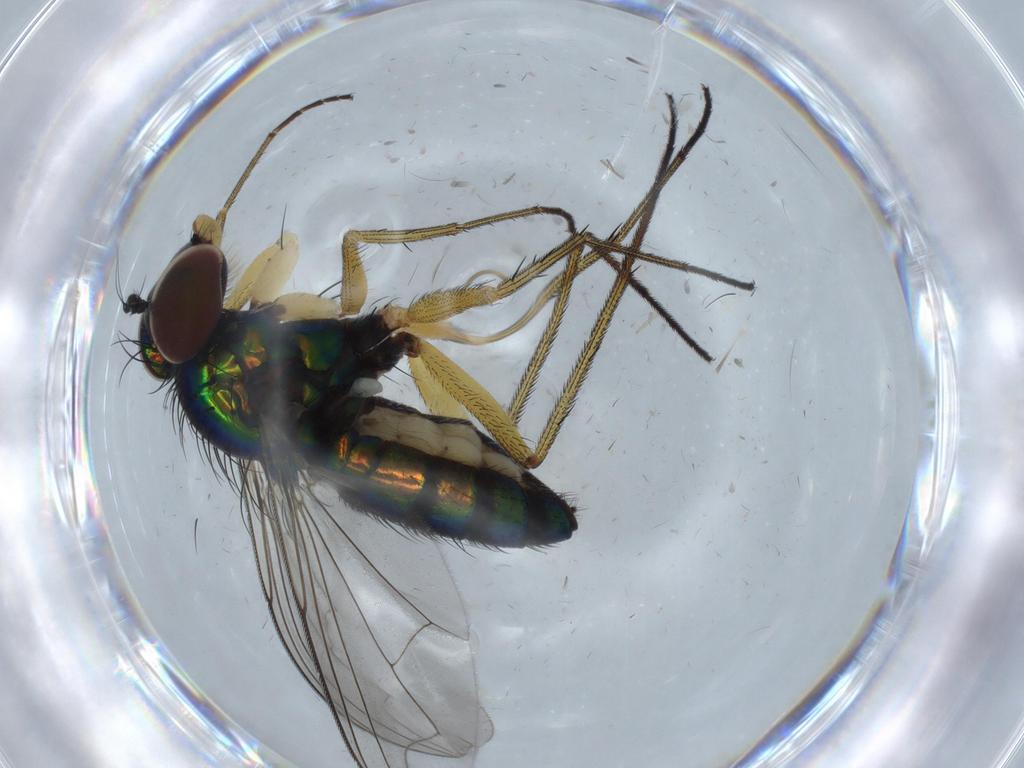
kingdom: Animalia
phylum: Arthropoda
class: Insecta
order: Diptera
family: Dolichopodidae
